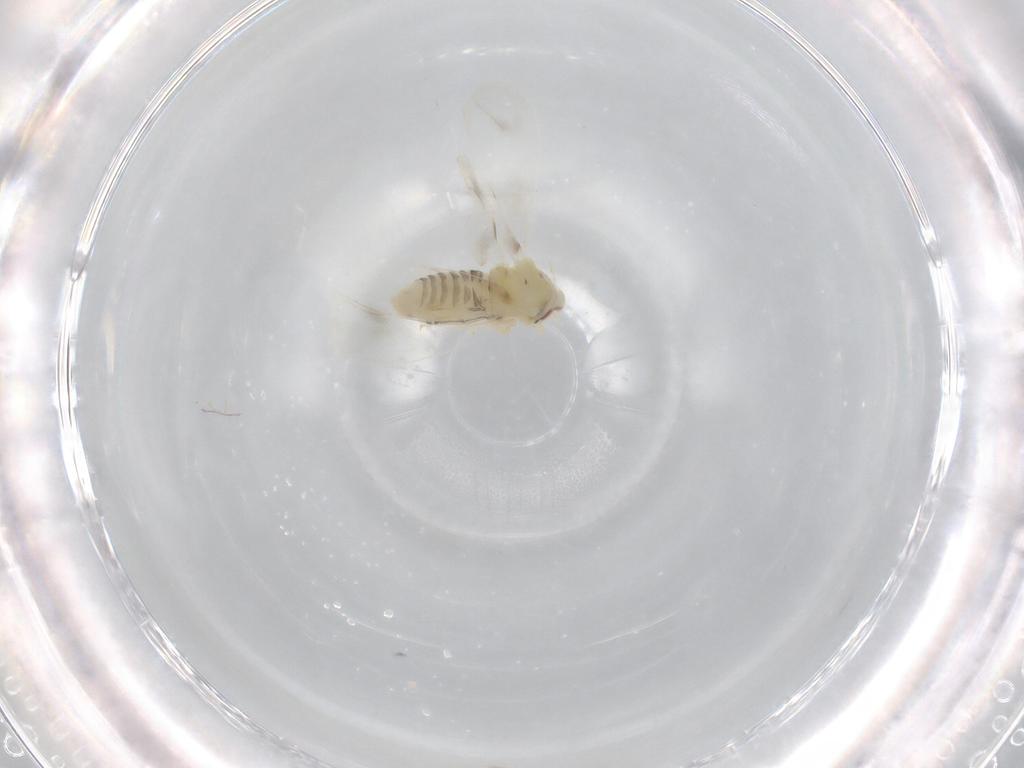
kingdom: Animalia
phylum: Arthropoda
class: Insecta
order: Hemiptera
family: Aleyrodidae
